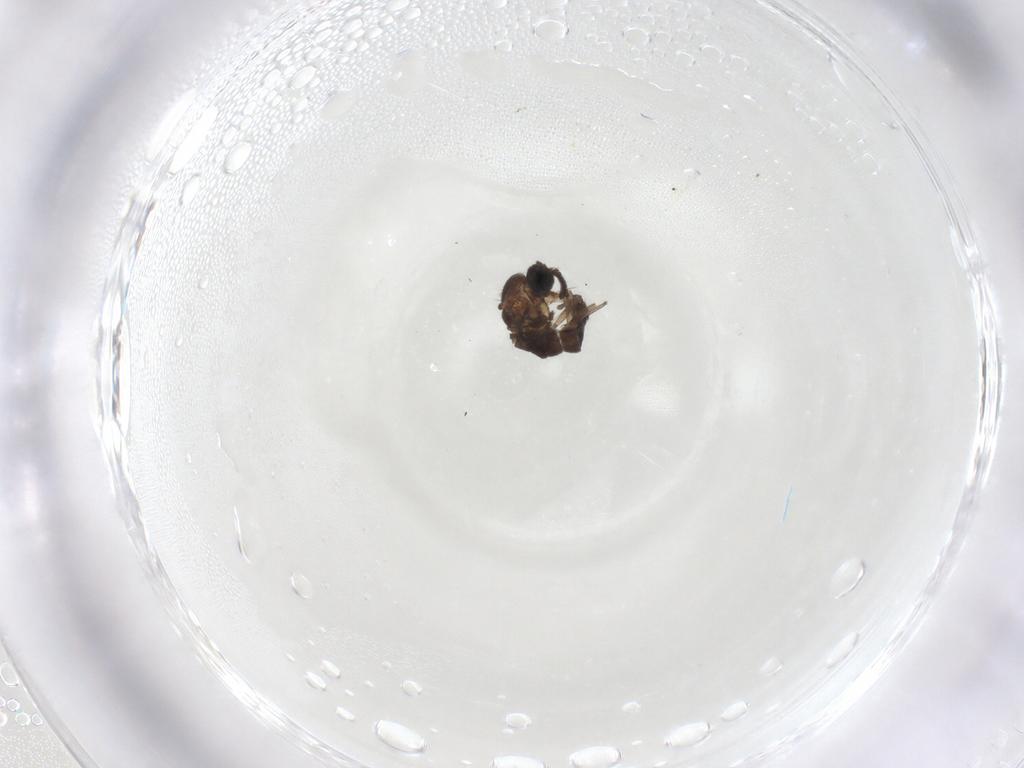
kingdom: Animalia
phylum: Arthropoda
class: Insecta
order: Diptera
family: Sciaridae
